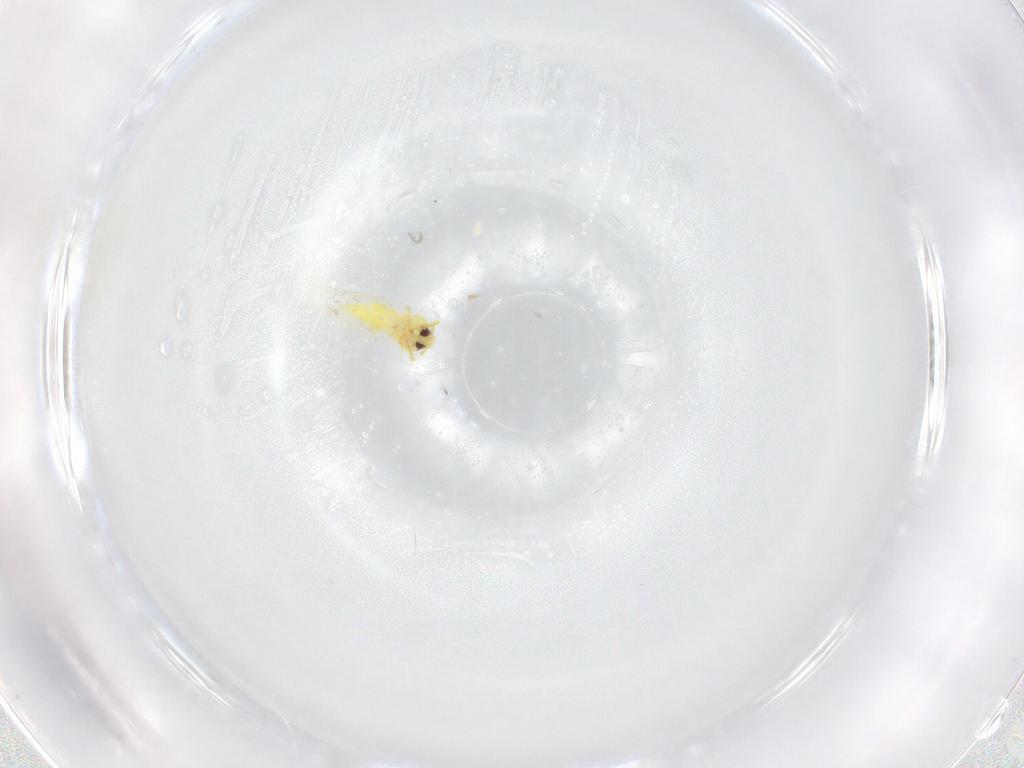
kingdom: Animalia
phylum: Arthropoda
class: Insecta
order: Hemiptera
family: Aleyrodidae
